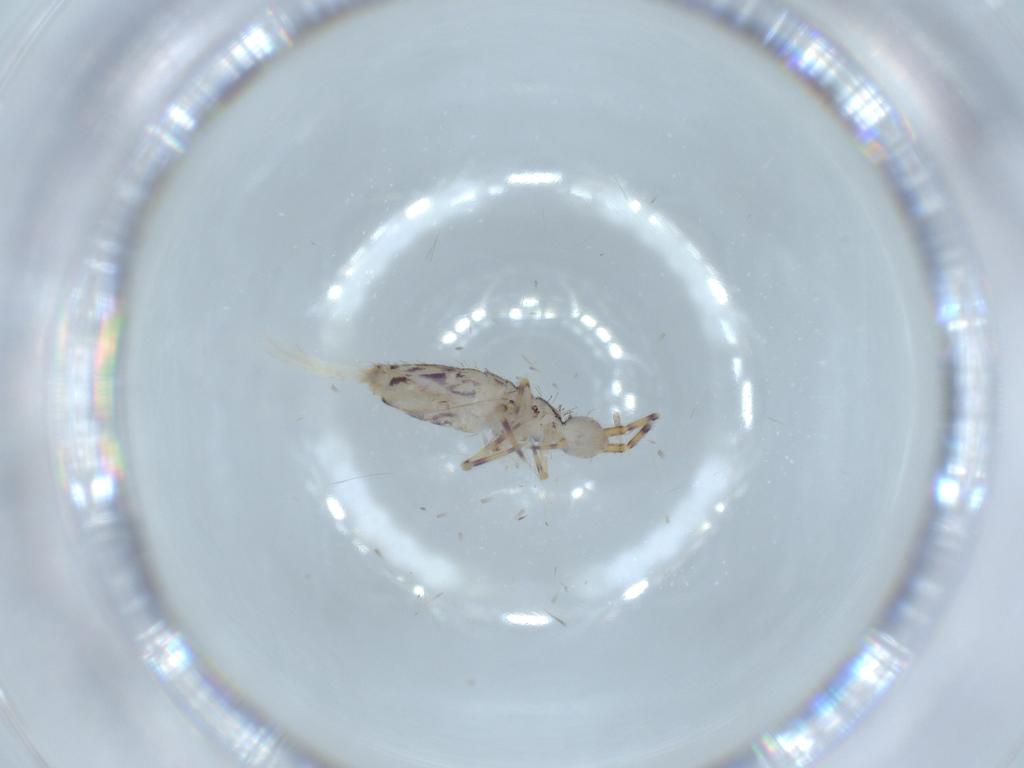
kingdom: Animalia
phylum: Arthropoda
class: Collembola
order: Entomobryomorpha
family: Entomobryidae
